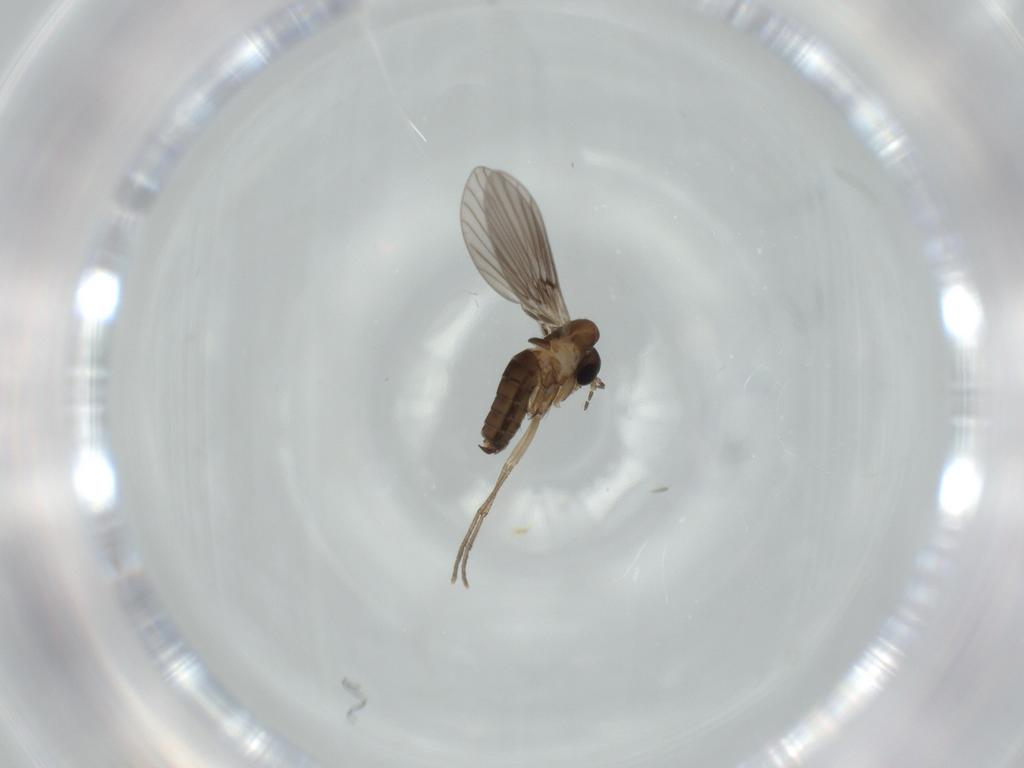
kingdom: Animalia
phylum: Arthropoda
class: Insecta
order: Diptera
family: Psychodidae
